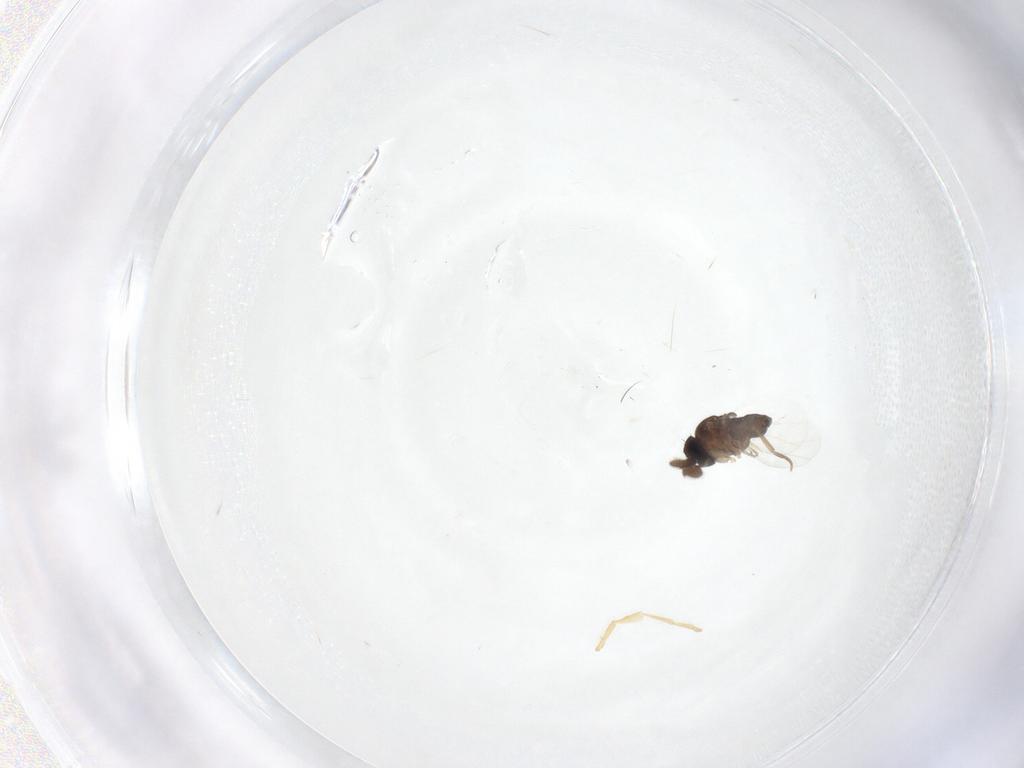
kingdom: Animalia
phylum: Arthropoda
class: Insecta
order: Diptera
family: Phoridae
